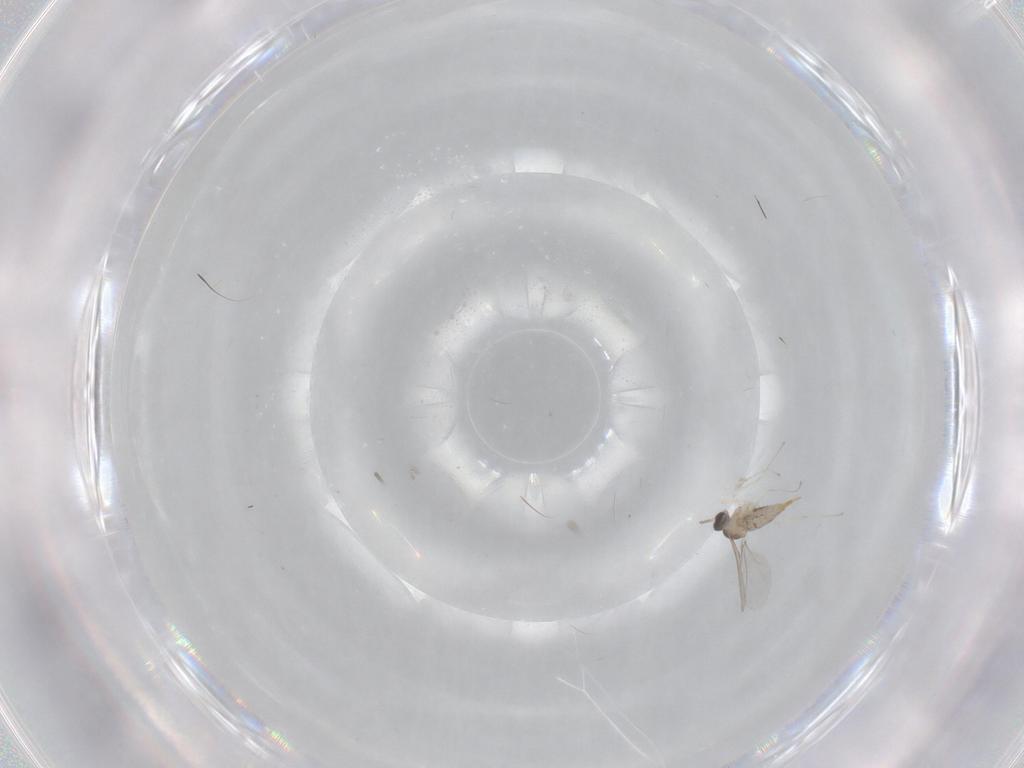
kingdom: Animalia
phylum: Arthropoda
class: Insecta
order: Diptera
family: Cecidomyiidae
